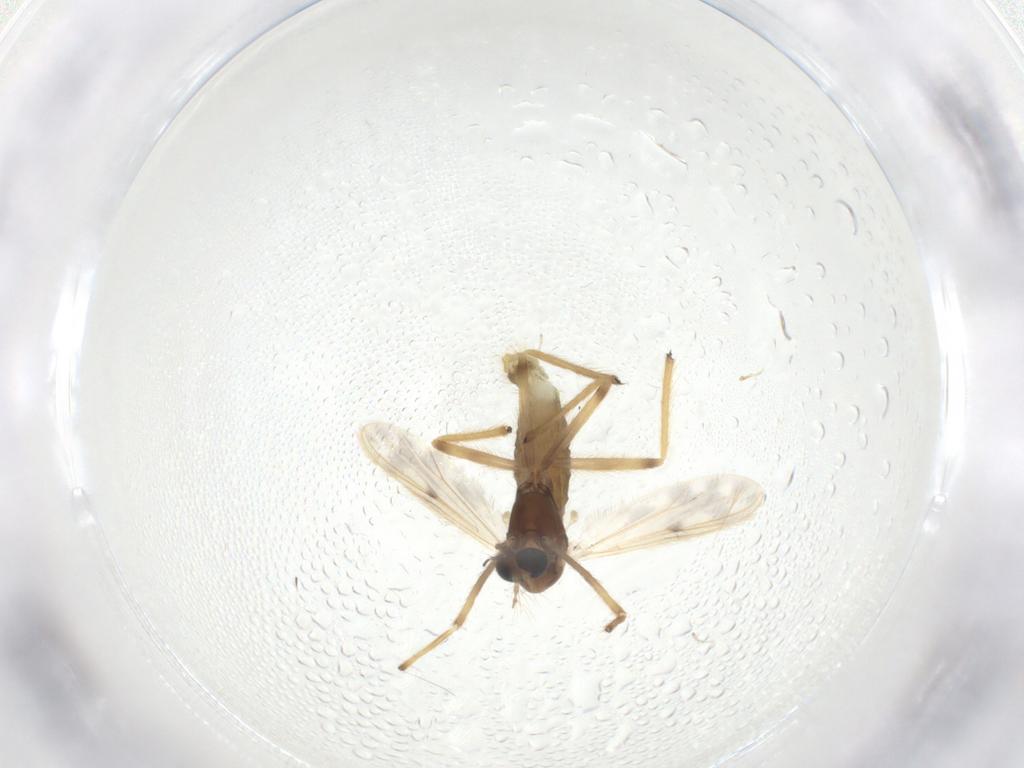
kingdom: Animalia
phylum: Arthropoda
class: Insecta
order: Diptera
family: Chironomidae
